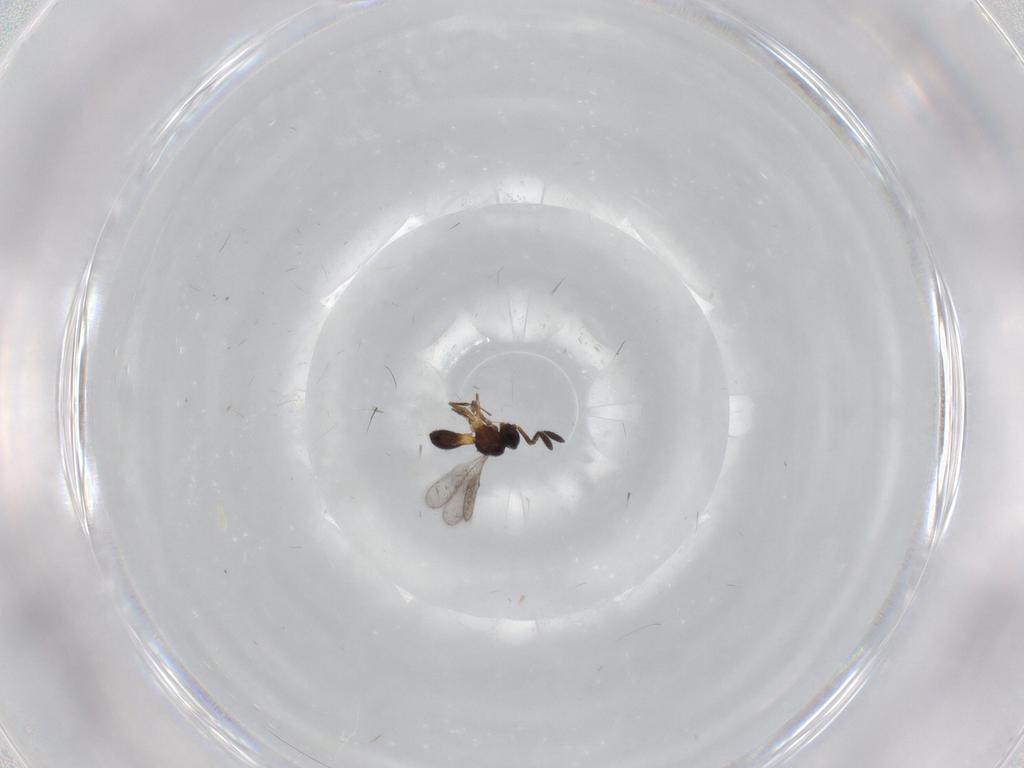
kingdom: Animalia
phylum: Arthropoda
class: Insecta
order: Hymenoptera
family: Scelionidae
